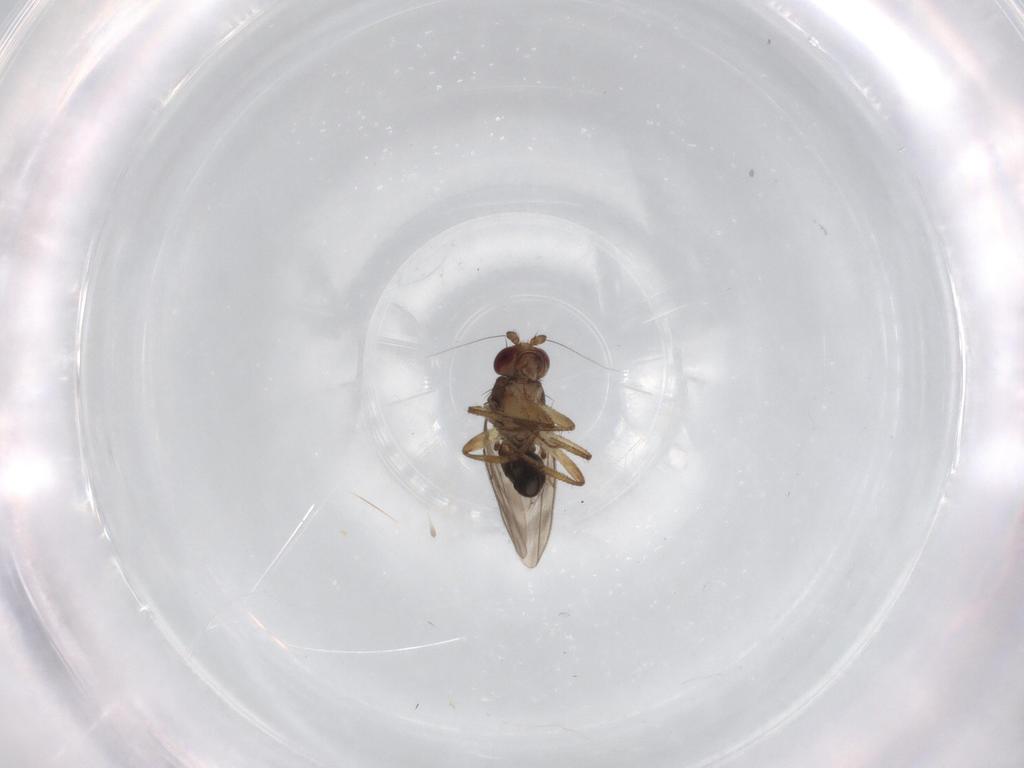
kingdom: Animalia
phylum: Arthropoda
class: Insecta
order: Diptera
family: Sphaeroceridae
